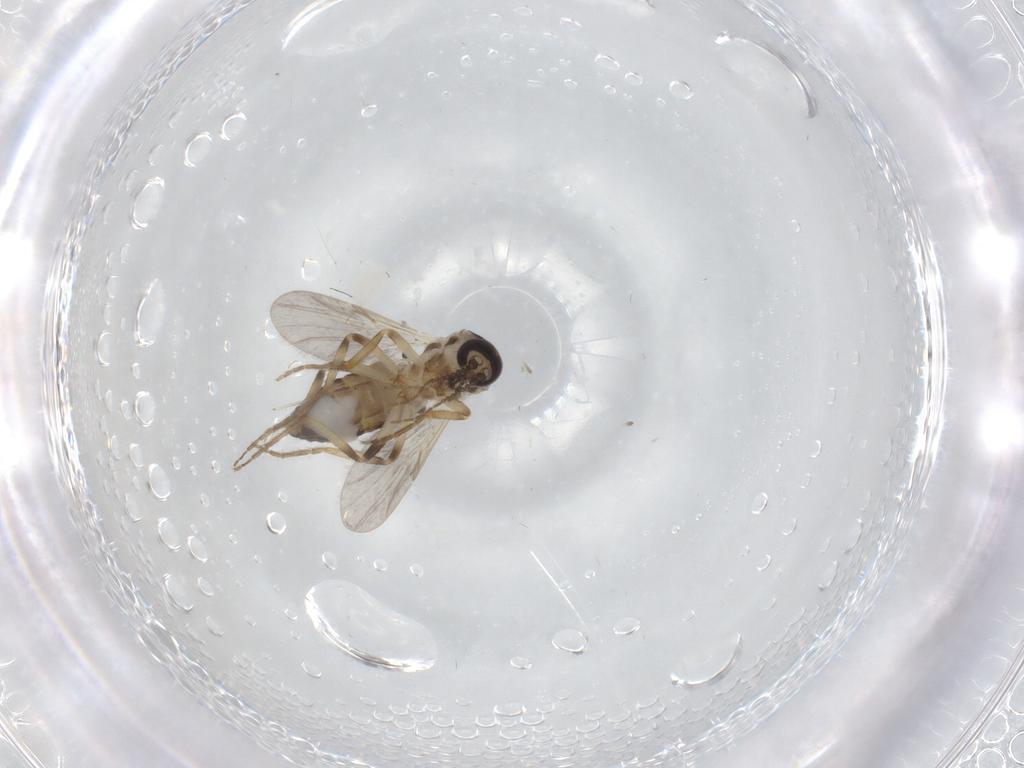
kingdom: Animalia
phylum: Arthropoda
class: Insecta
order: Diptera
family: Ceratopogonidae
